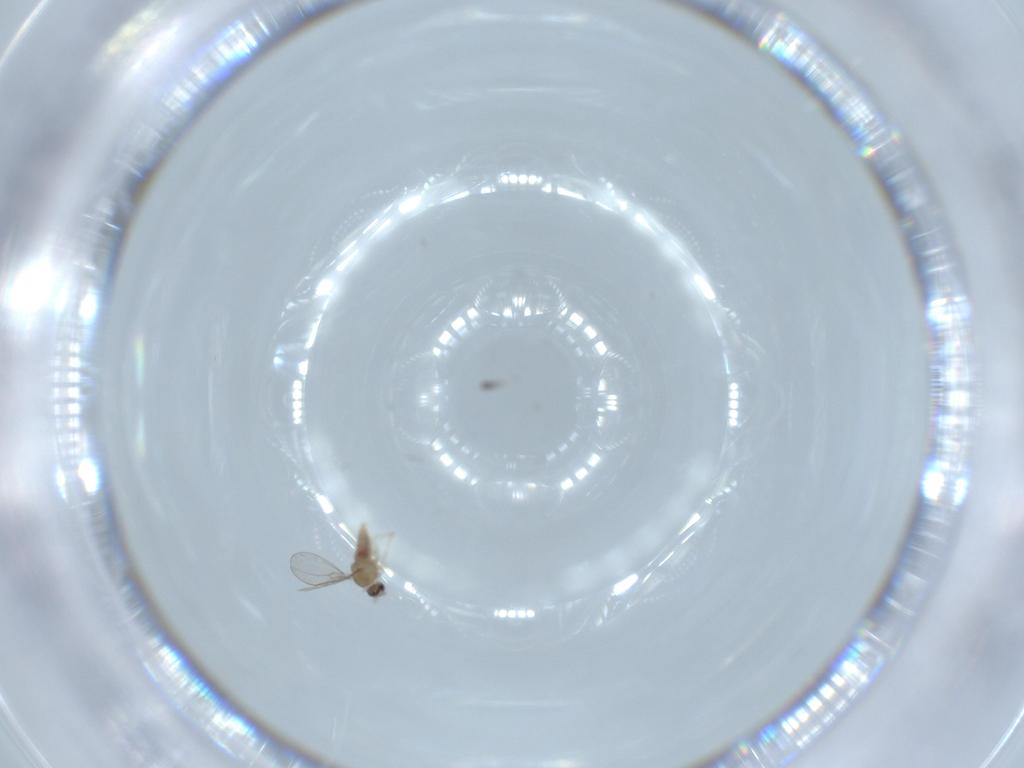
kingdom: Animalia
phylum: Arthropoda
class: Insecta
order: Diptera
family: Cecidomyiidae
